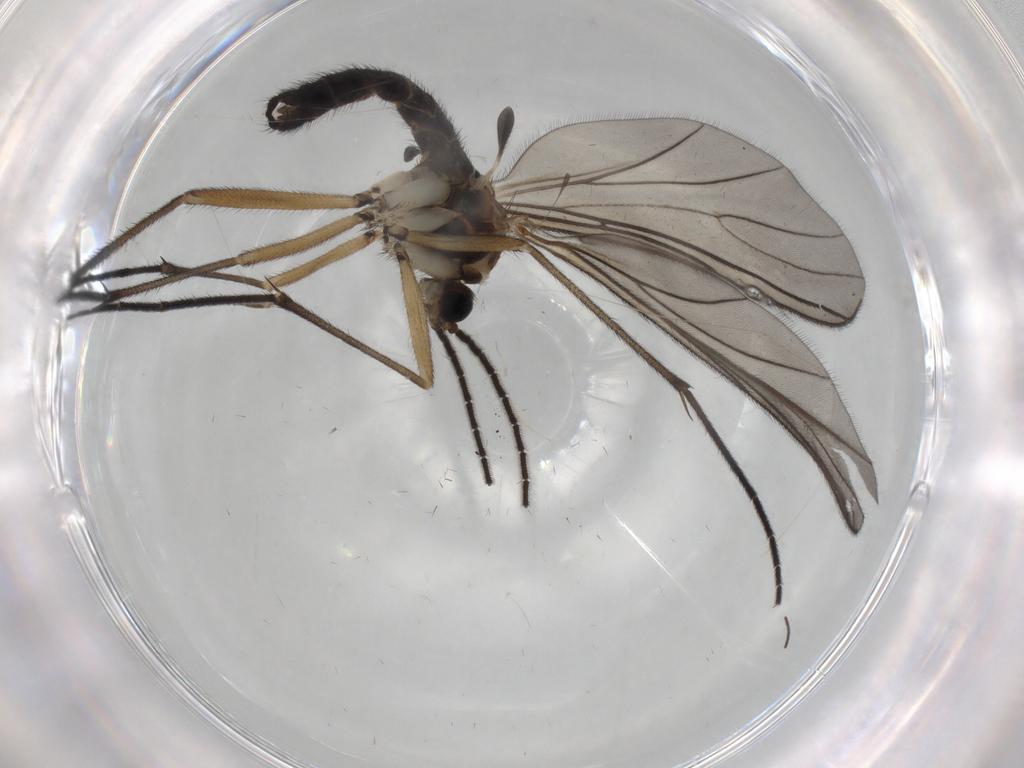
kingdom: Animalia
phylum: Arthropoda
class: Insecta
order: Diptera
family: Sciaridae
